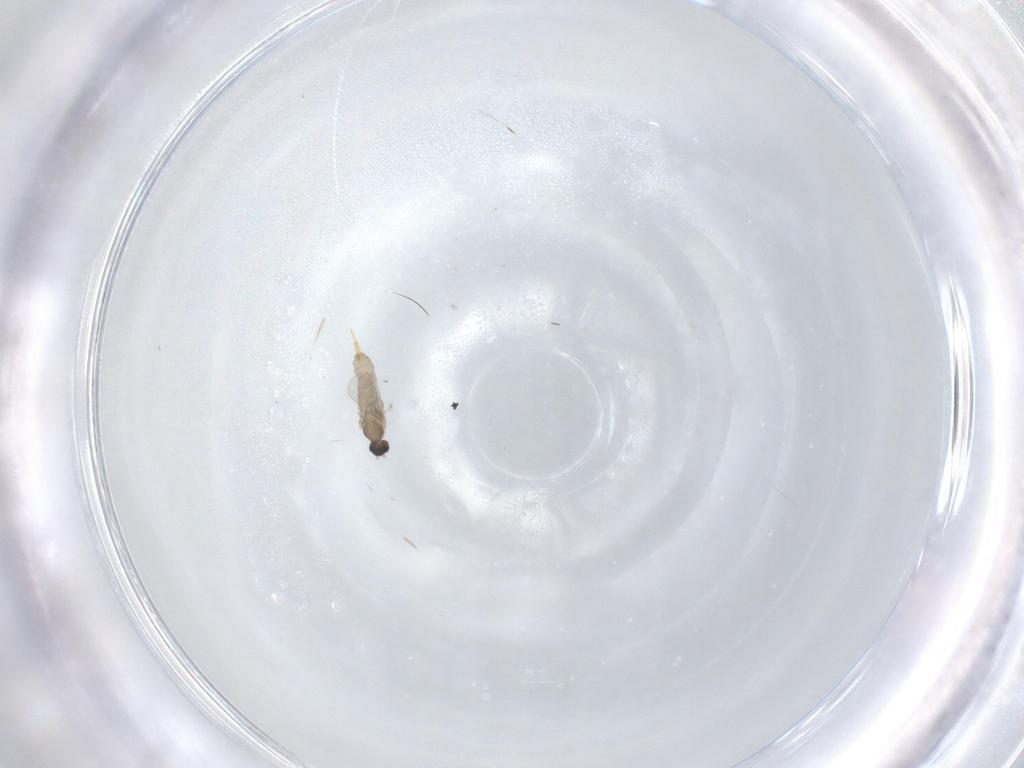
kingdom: Animalia
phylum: Arthropoda
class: Insecta
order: Diptera
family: Cecidomyiidae
